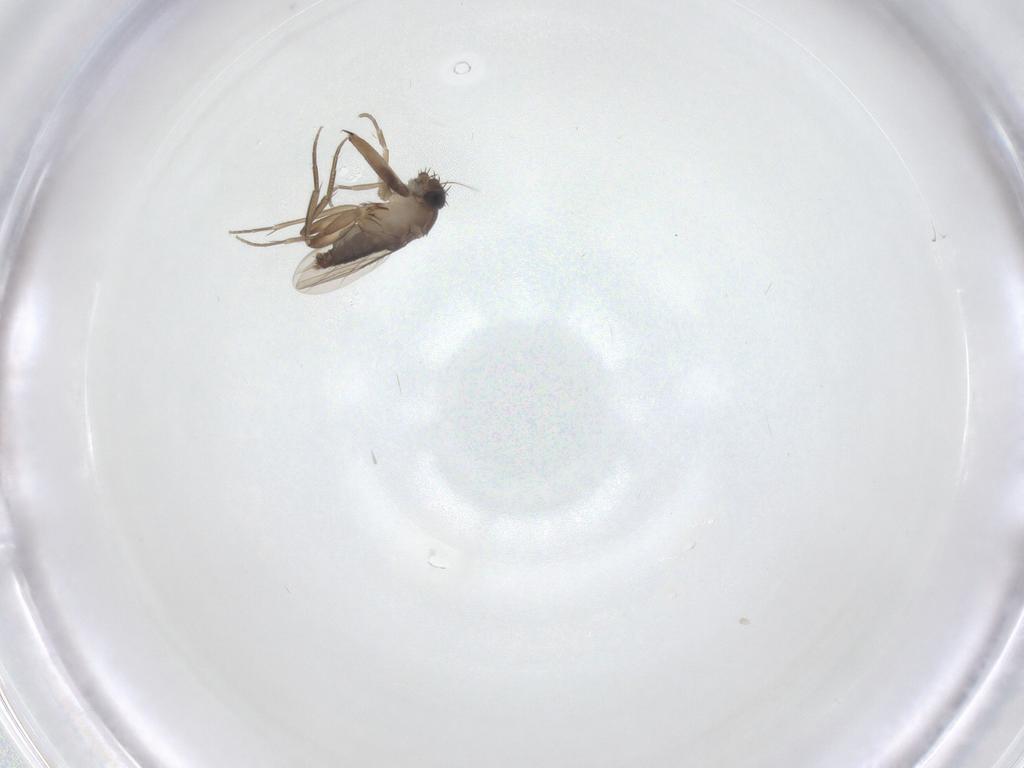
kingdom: Animalia
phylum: Arthropoda
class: Insecta
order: Diptera
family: Phoridae
